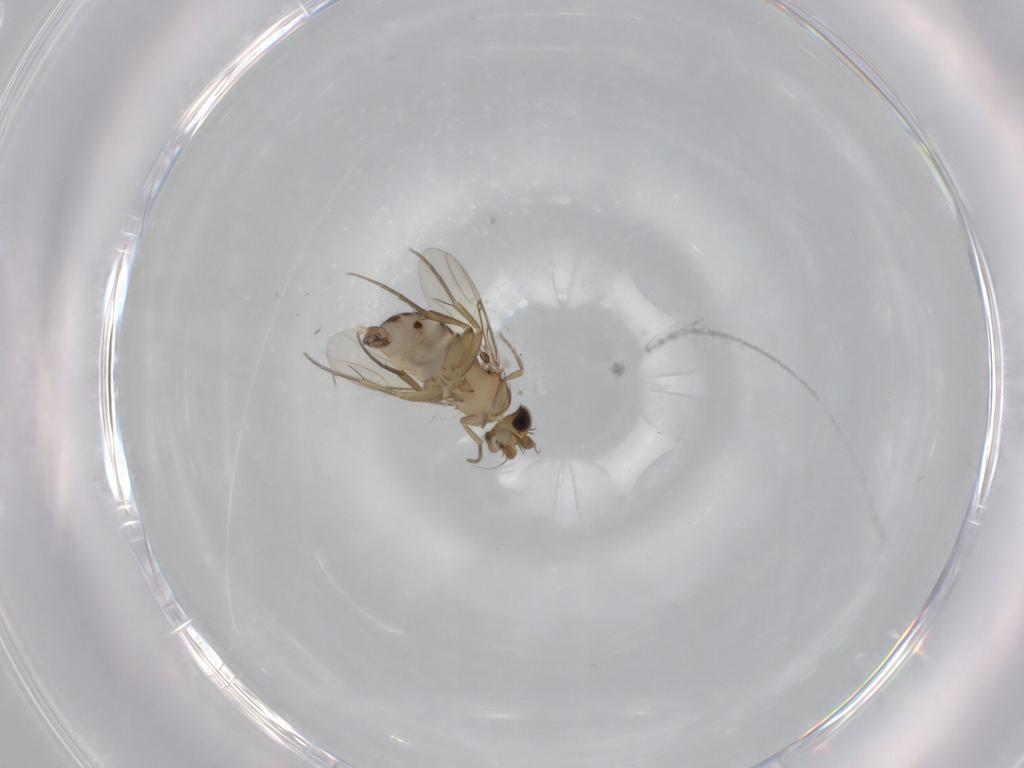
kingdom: Animalia
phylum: Arthropoda
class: Insecta
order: Diptera
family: Phoridae
